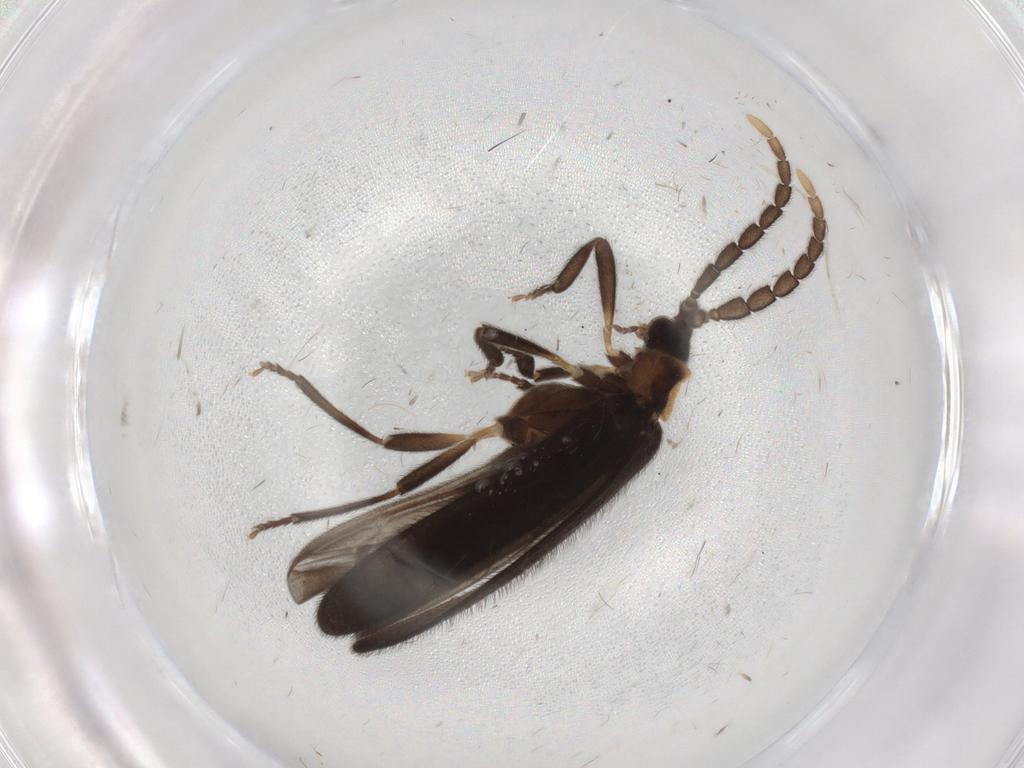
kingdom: Animalia
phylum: Arthropoda
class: Insecta
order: Coleoptera
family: Lycidae
